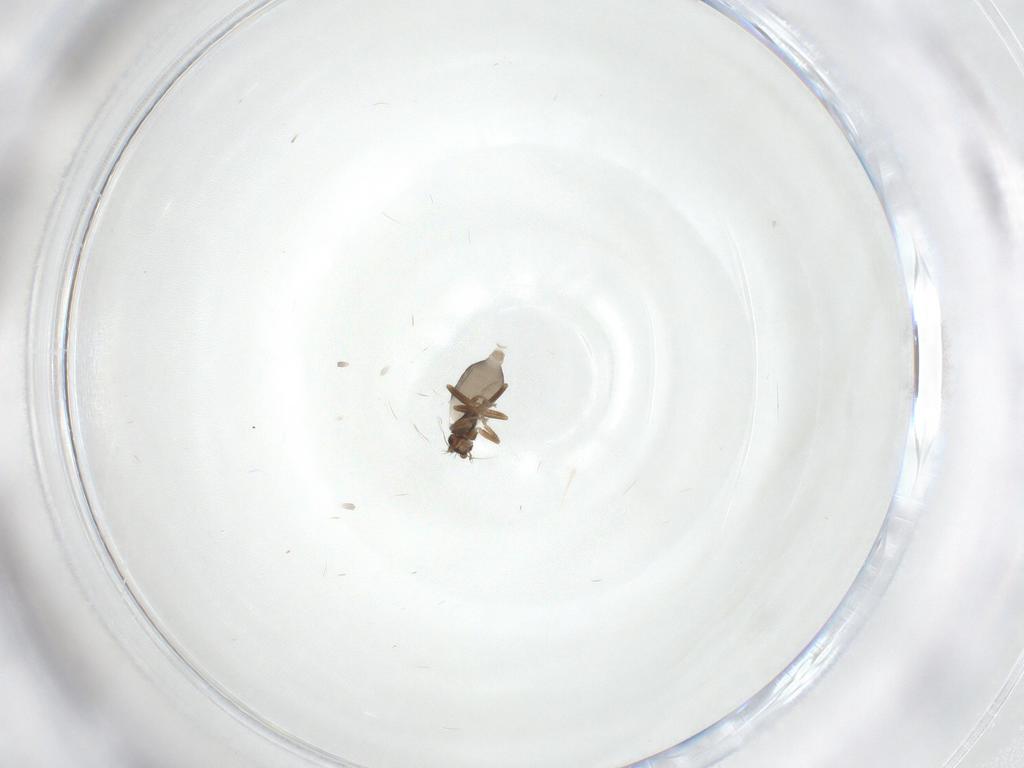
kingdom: Animalia
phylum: Arthropoda
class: Insecta
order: Diptera
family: Phoridae
